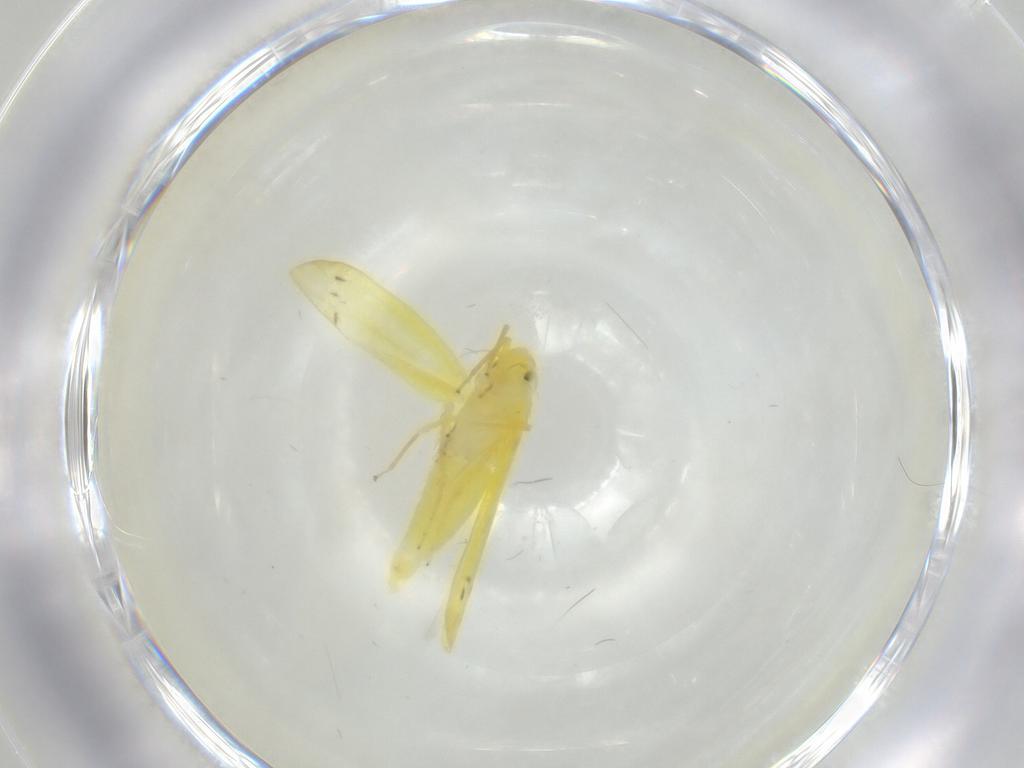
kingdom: Animalia
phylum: Arthropoda
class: Insecta
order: Hemiptera
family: Cicadellidae
